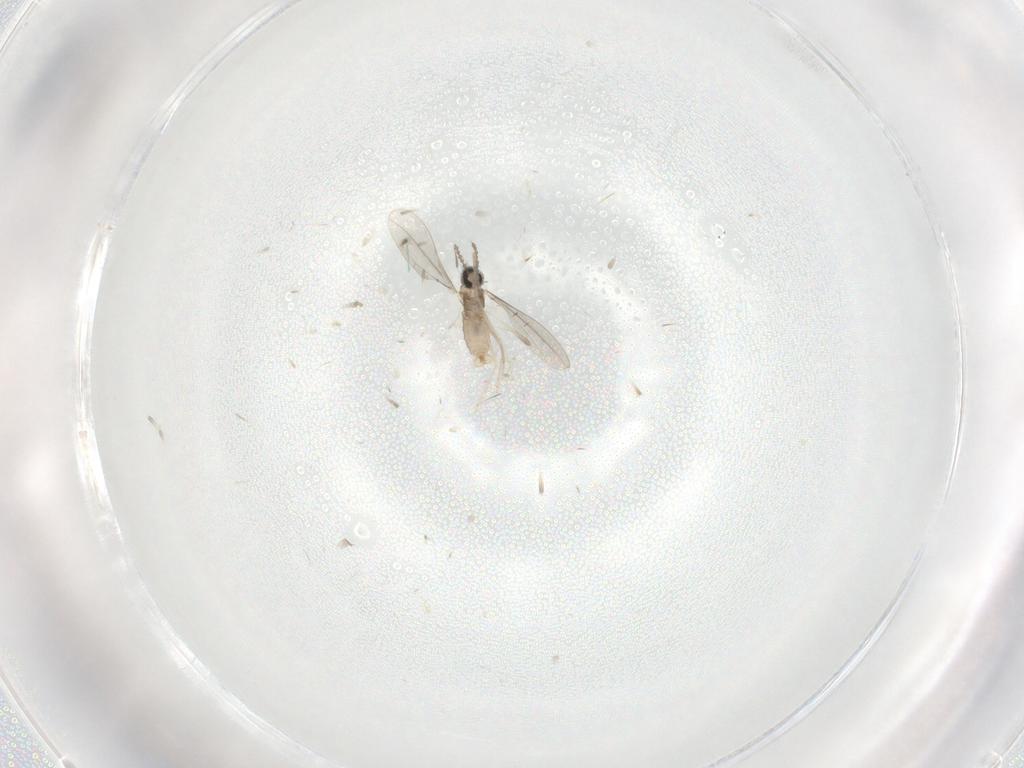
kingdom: Animalia
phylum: Arthropoda
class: Insecta
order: Diptera
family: Cecidomyiidae
